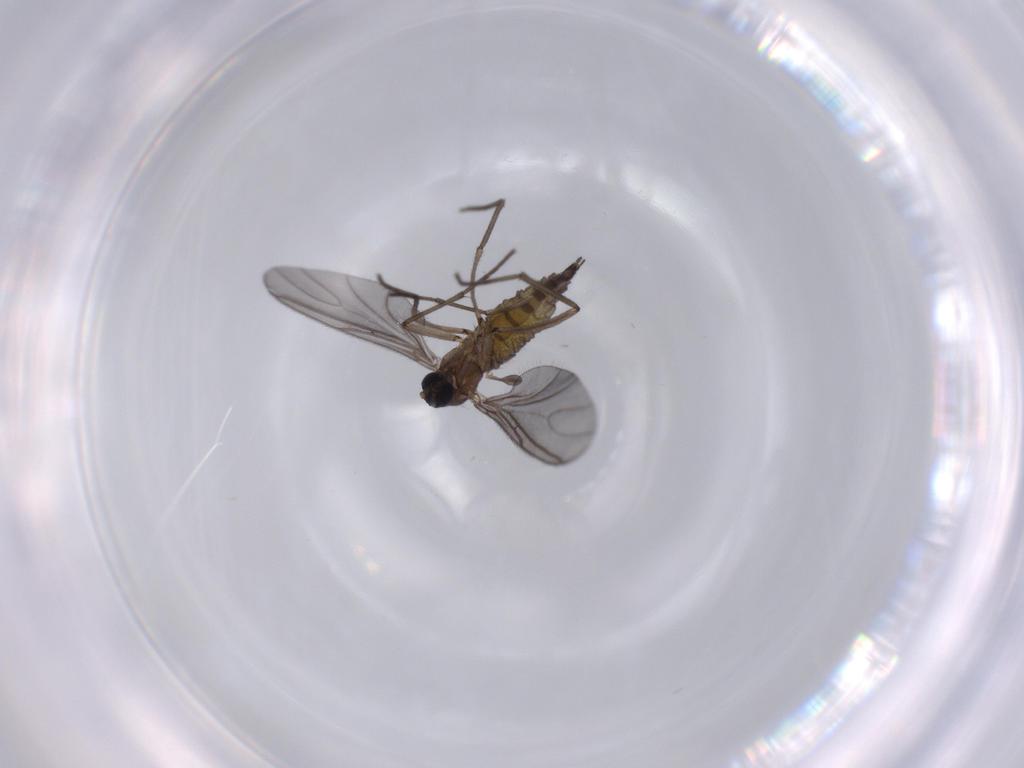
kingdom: Animalia
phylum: Arthropoda
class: Insecta
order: Diptera
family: Sciaridae
